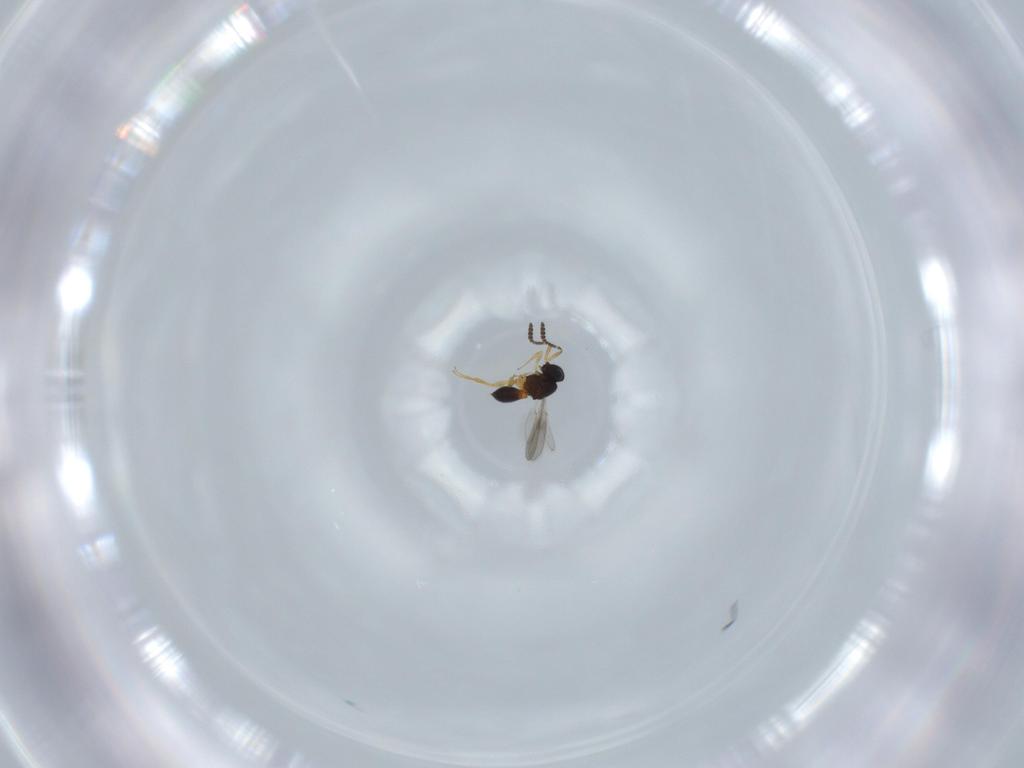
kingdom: Animalia
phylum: Arthropoda
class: Insecta
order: Hymenoptera
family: Scelionidae
